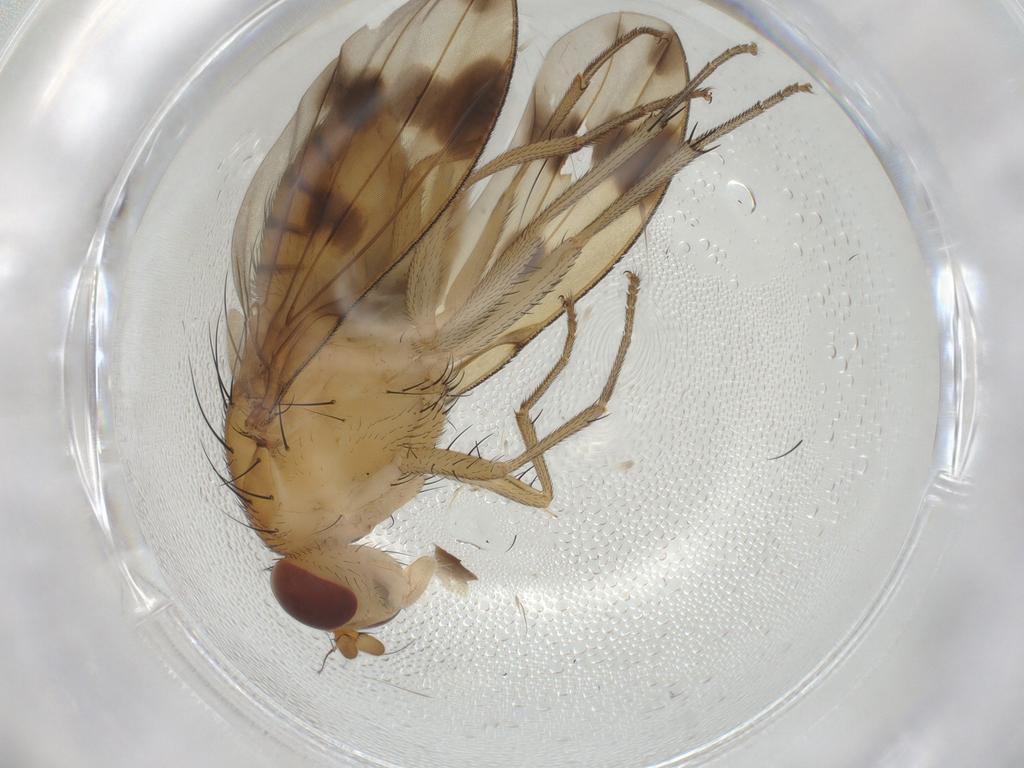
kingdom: Animalia
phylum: Arthropoda
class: Insecta
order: Diptera
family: Lauxaniidae
